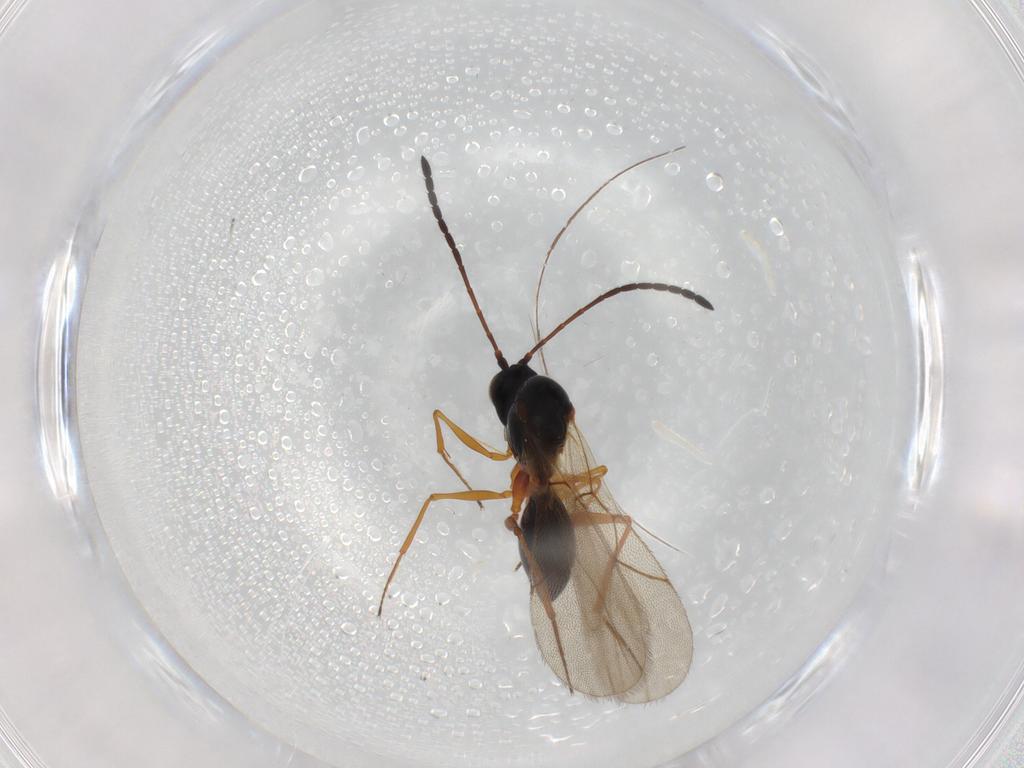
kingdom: Animalia
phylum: Arthropoda
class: Insecta
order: Hymenoptera
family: Figitidae
